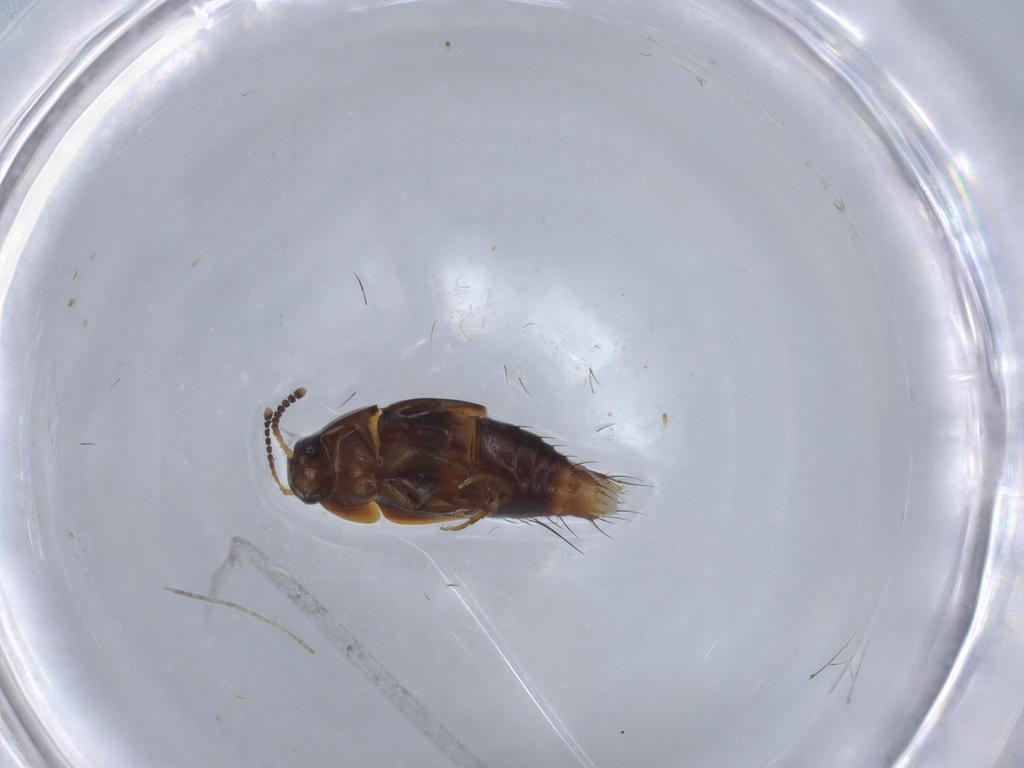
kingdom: Animalia
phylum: Arthropoda
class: Insecta
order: Coleoptera
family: Staphylinidae
